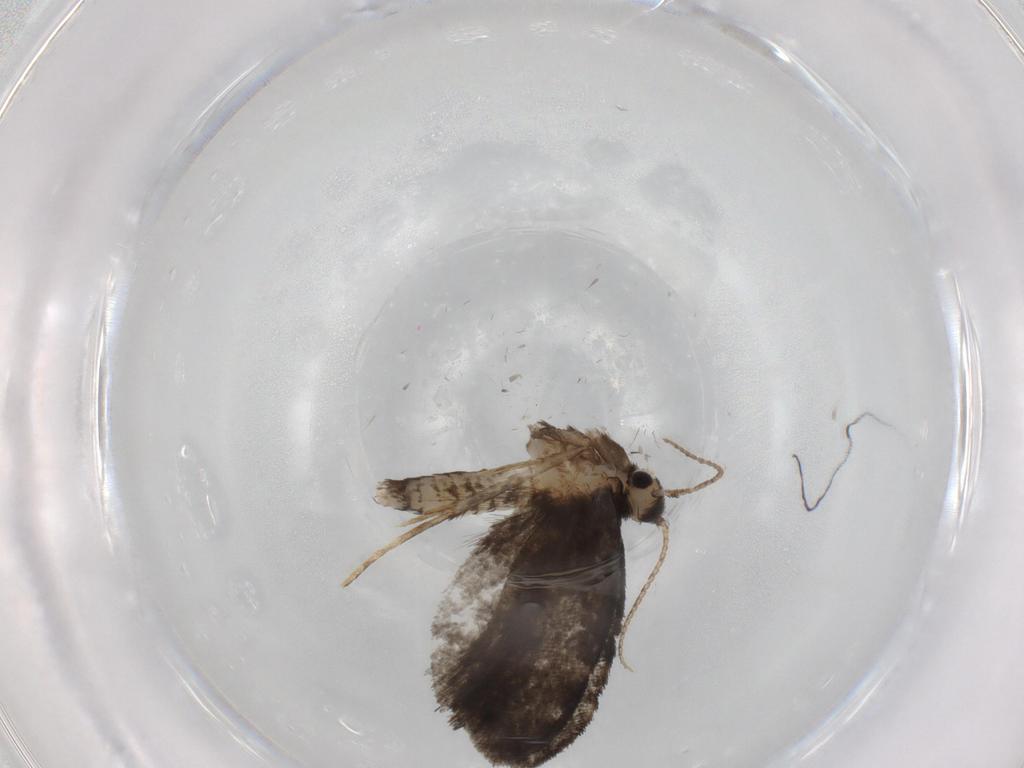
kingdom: Animalia
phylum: Arthropoda
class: Insecta
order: Lepidoptera
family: Psychidae
